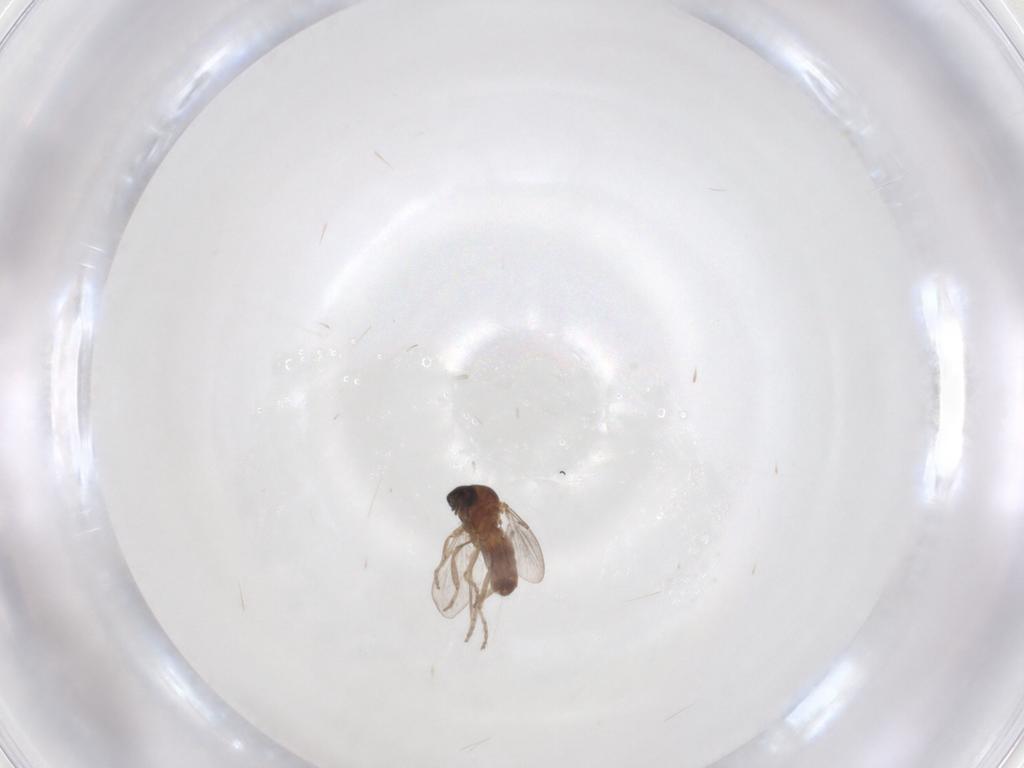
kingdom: Animalia
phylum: Arthropoda
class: Insecta
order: Diptera
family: Ceratopogonidae
